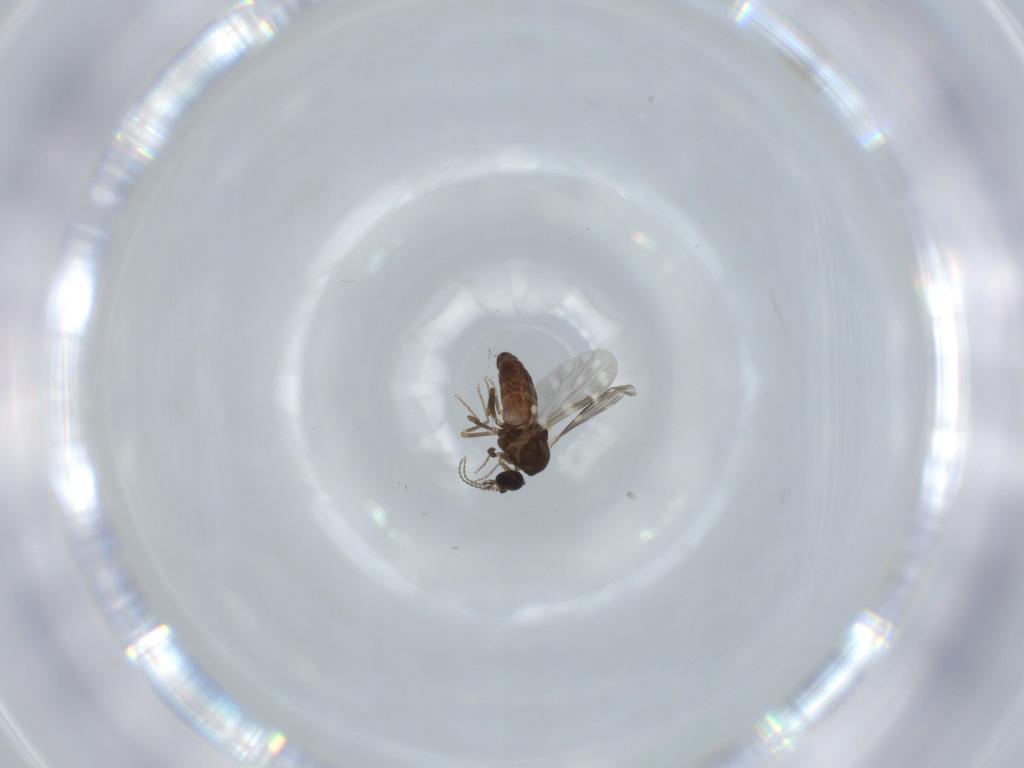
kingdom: Animalia
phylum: Arthropoda
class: Insecta
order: Diptera
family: Ceratopogonidae
